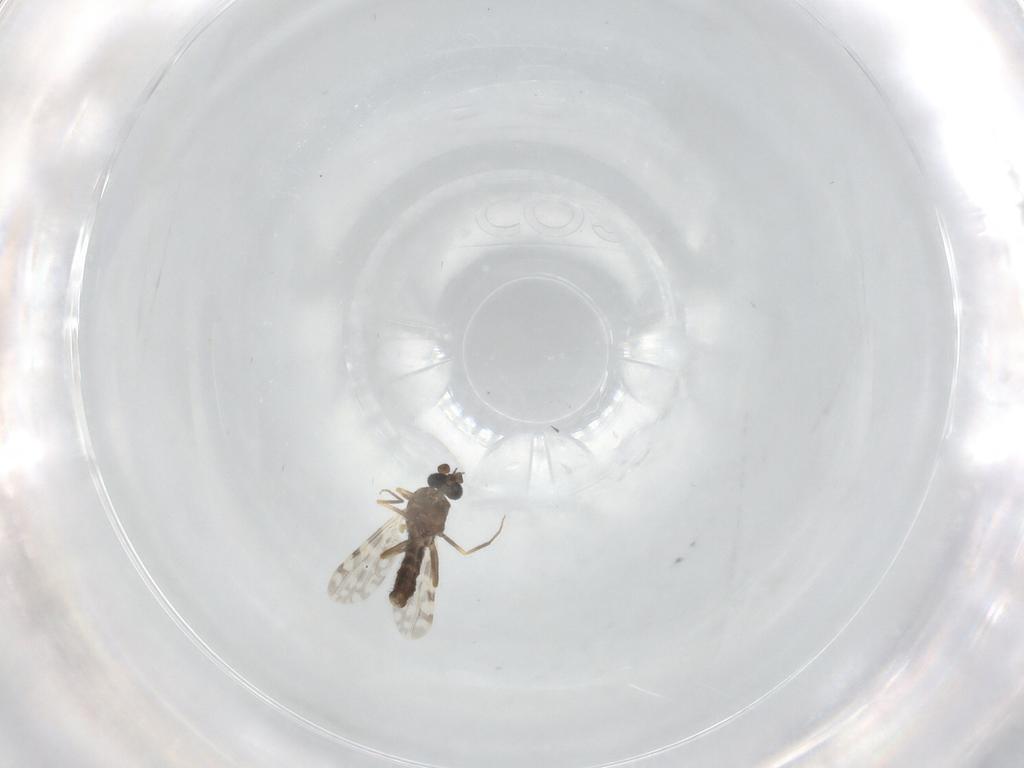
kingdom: Animalia
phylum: Arthropoda
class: Insecta
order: Diptera
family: Ceratopogonidae
